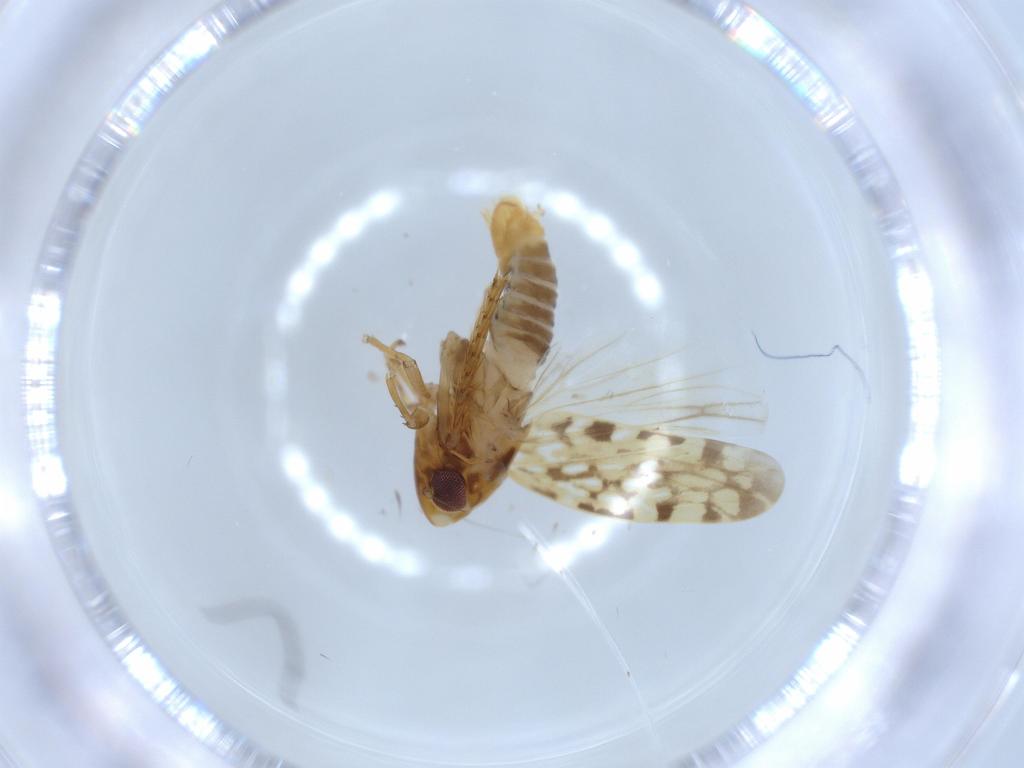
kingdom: Animalia
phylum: Arthropoda
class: Insecta
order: Hemiptera
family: Cicadellidae
